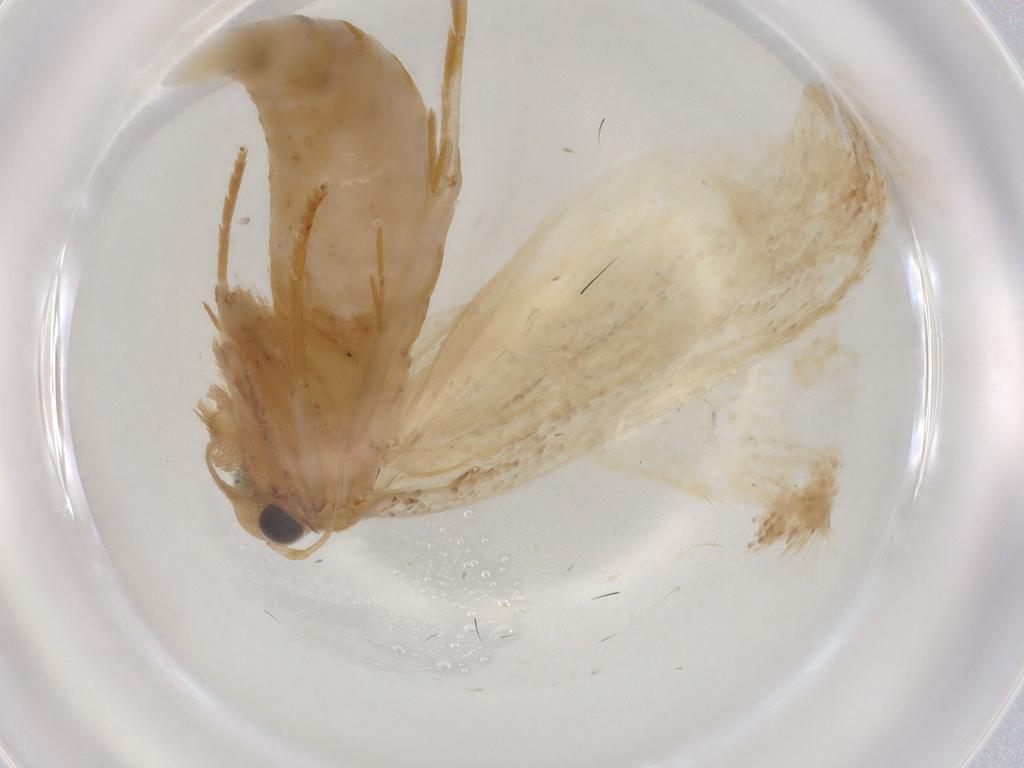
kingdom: Animalia
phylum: Arthropoda
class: Insecta
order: Lepidoptera
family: Oecophoridae
